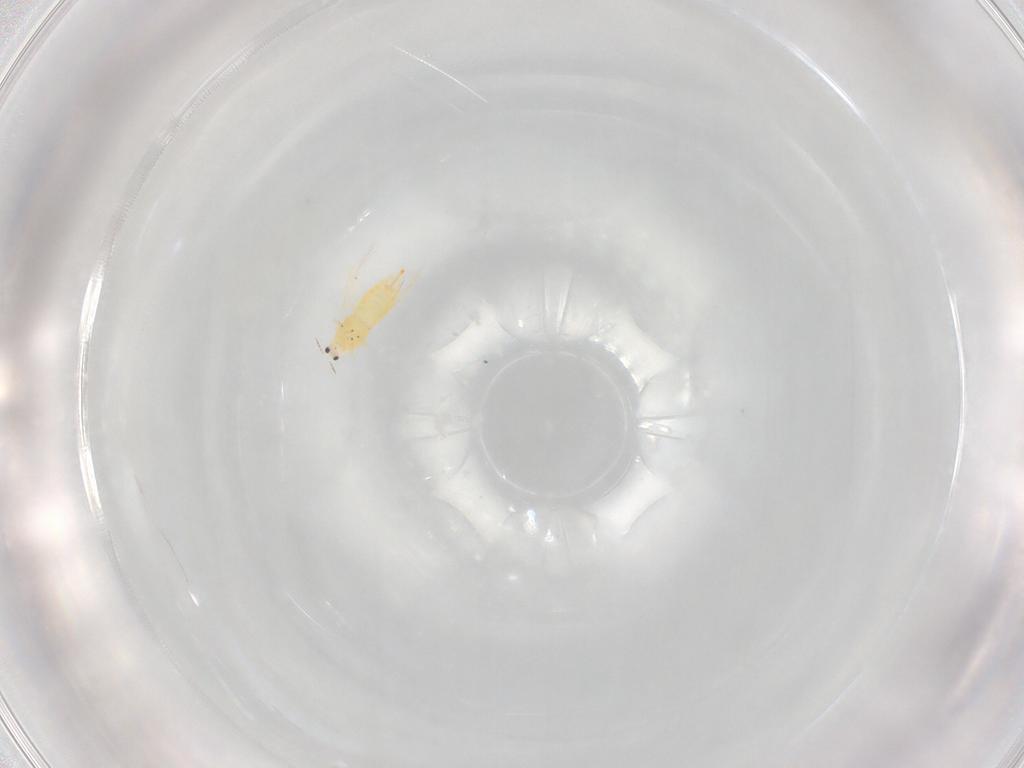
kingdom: Animalia
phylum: Arthropoda
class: Insecta
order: Thysanoptera
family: Thripidae
